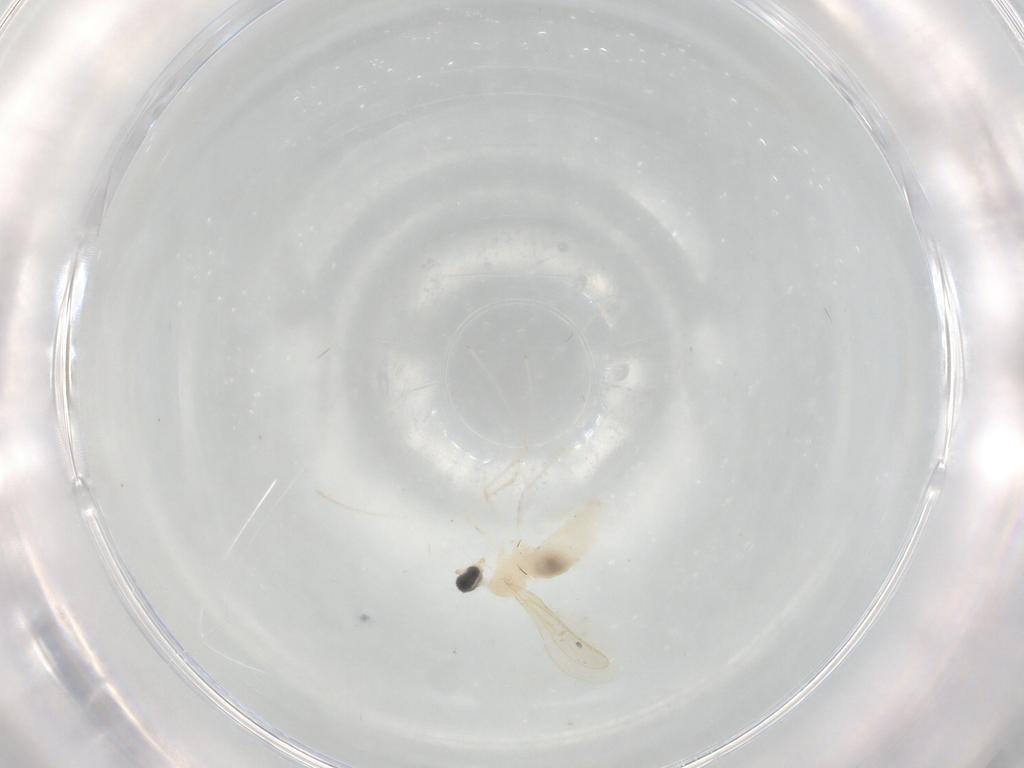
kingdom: Animalia
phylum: Arthropoda
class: Insecta
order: Diptera
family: Cecidomyiidae
